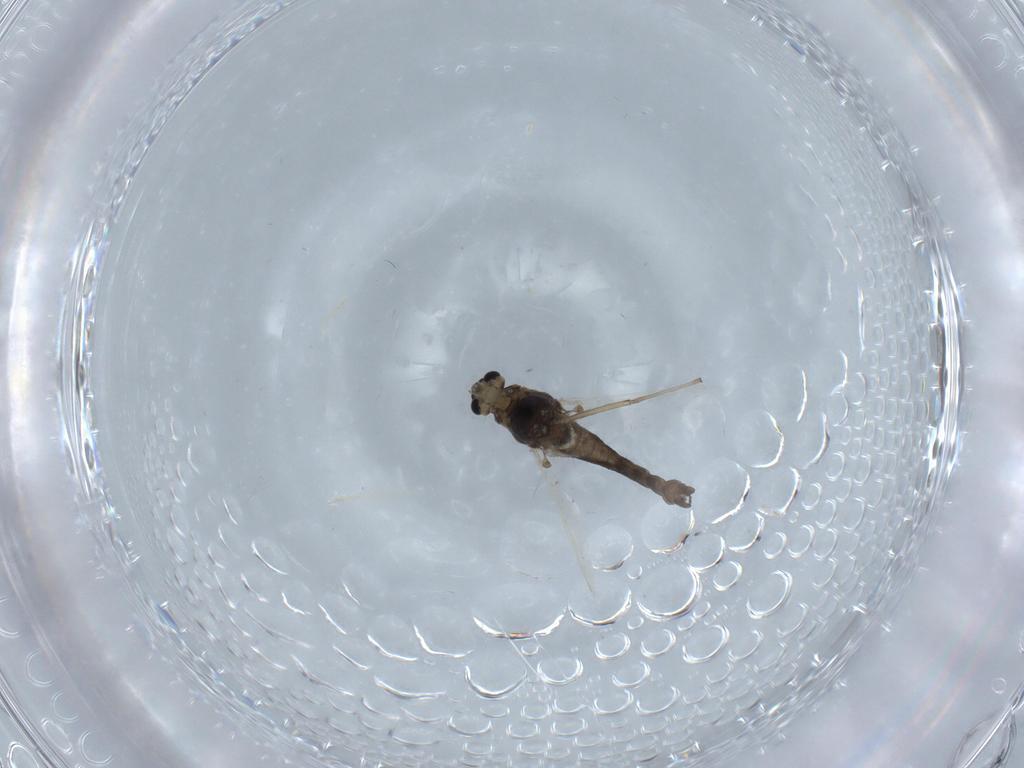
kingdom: Animalia
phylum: Arthropoda
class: Insecta
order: Diptera
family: Chironomidae
